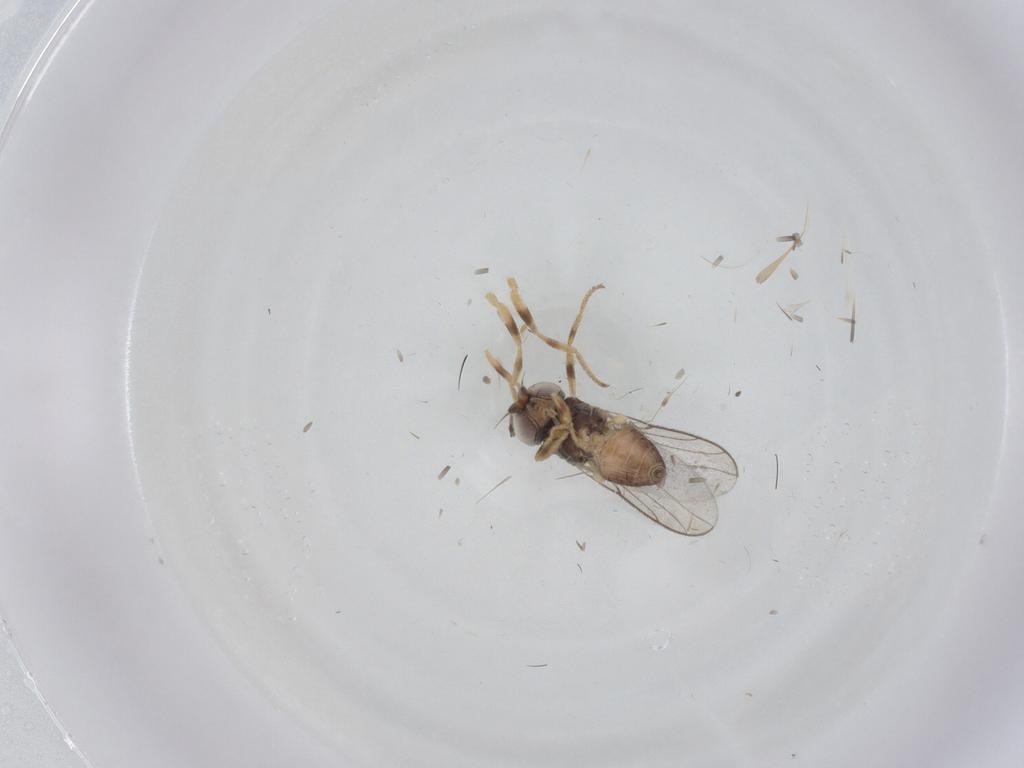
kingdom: Animalia
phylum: Arthropoda
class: Insecta
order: Diptera
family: Chloropidae
